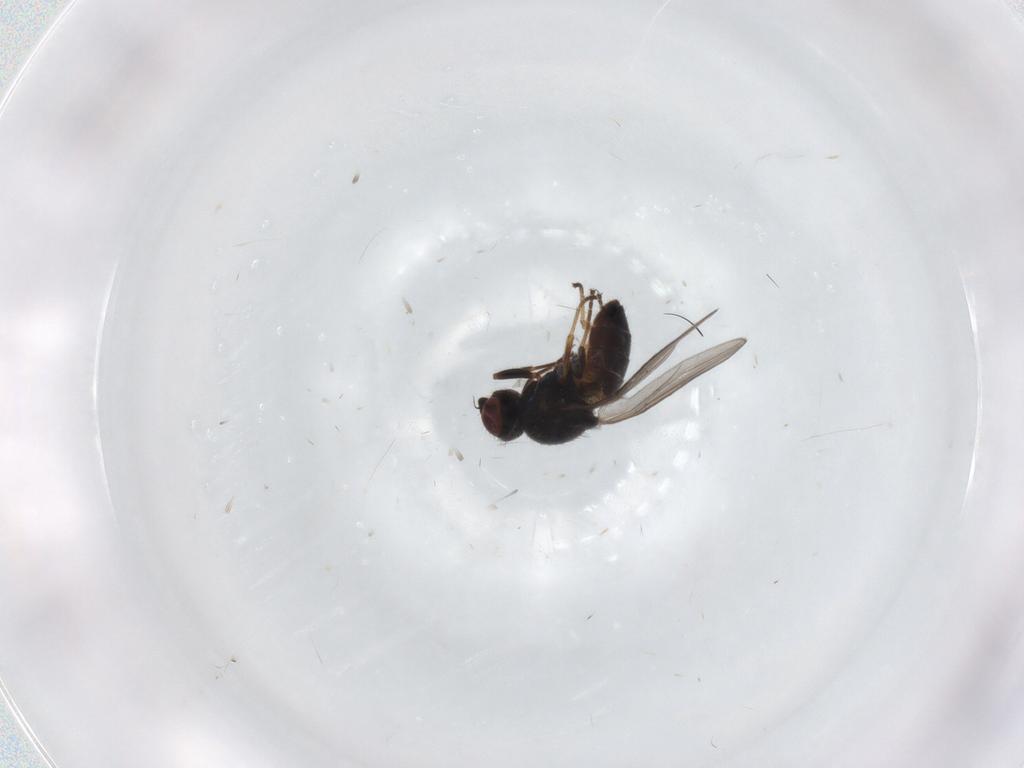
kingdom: Animalia
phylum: Arthropoda
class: Insecta
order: Diptera
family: Chloropidae
